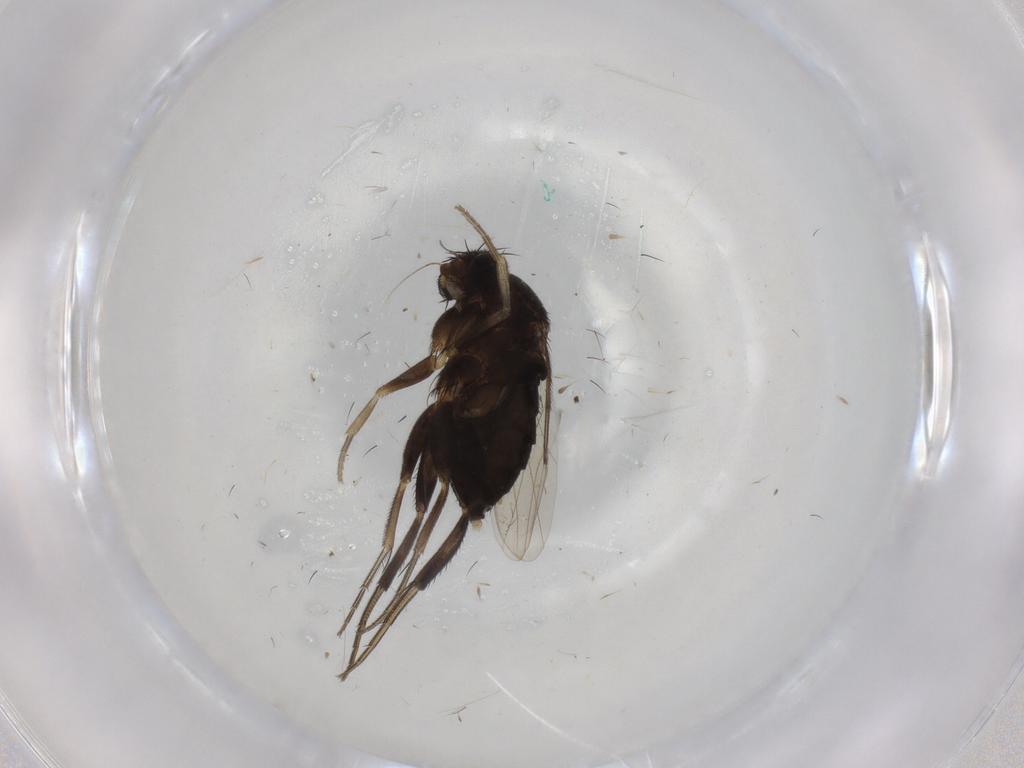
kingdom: Animalia
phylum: Arthropoda
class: Insecta
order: Diptera
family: Phoridae
